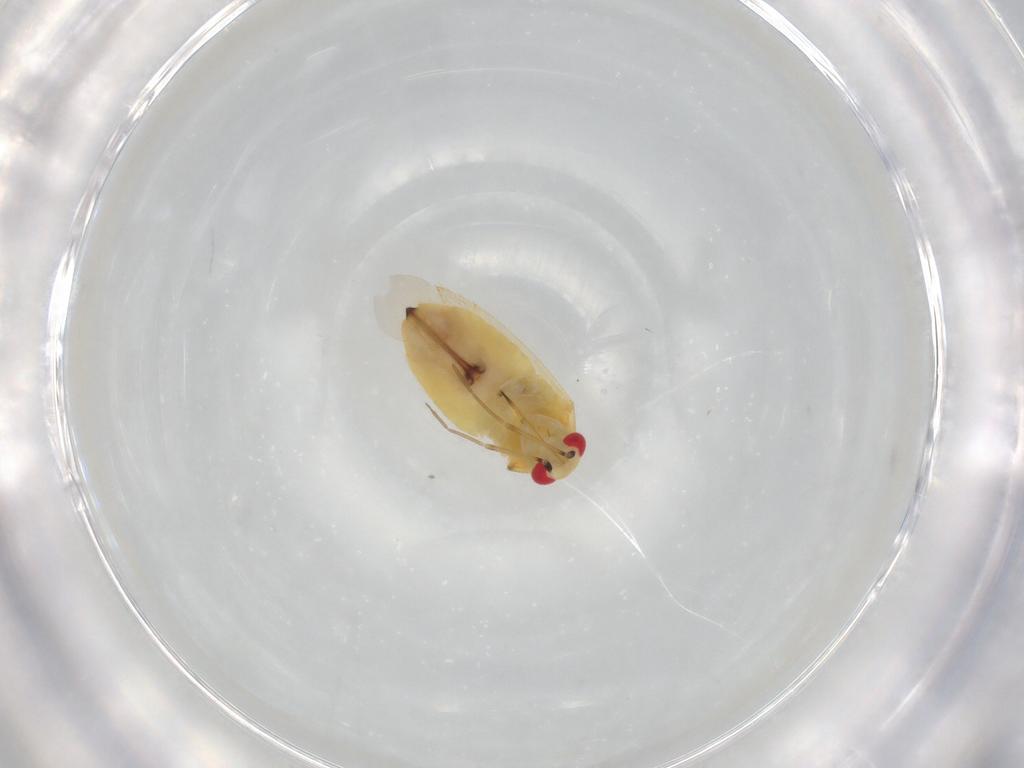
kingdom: Animalia
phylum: Arthropoda
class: Insecta
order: Hemiptera
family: Miridae
